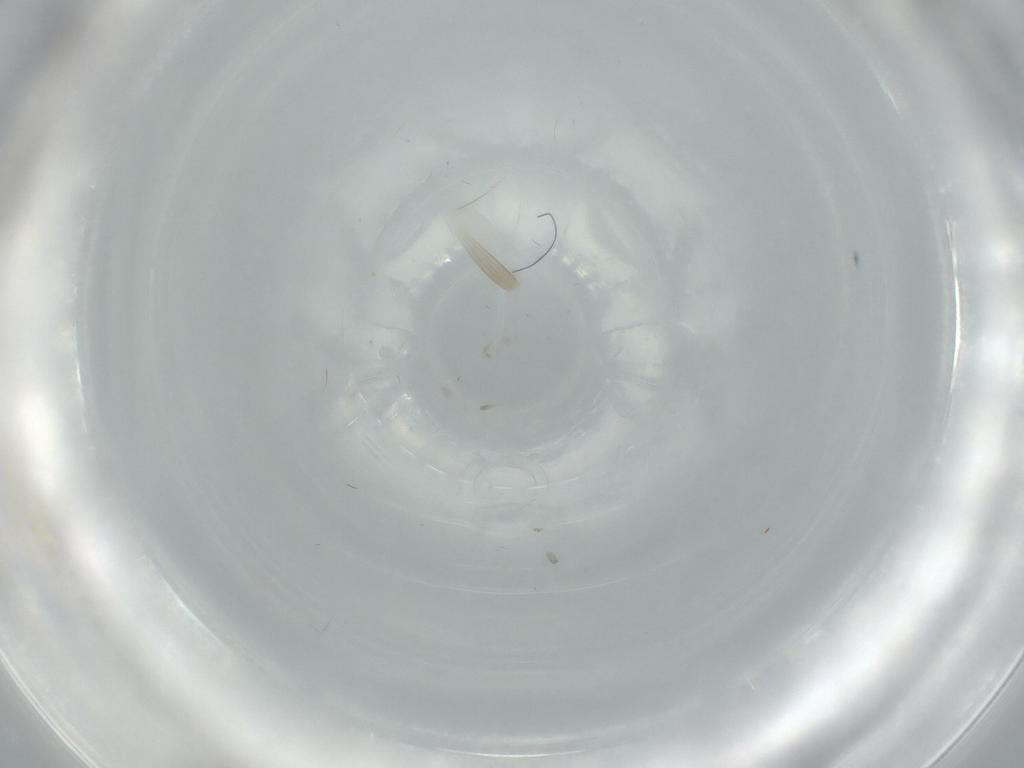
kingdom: Animalia
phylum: Arthropoda
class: Insecta
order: Diptera
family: Cecidomyiidae
